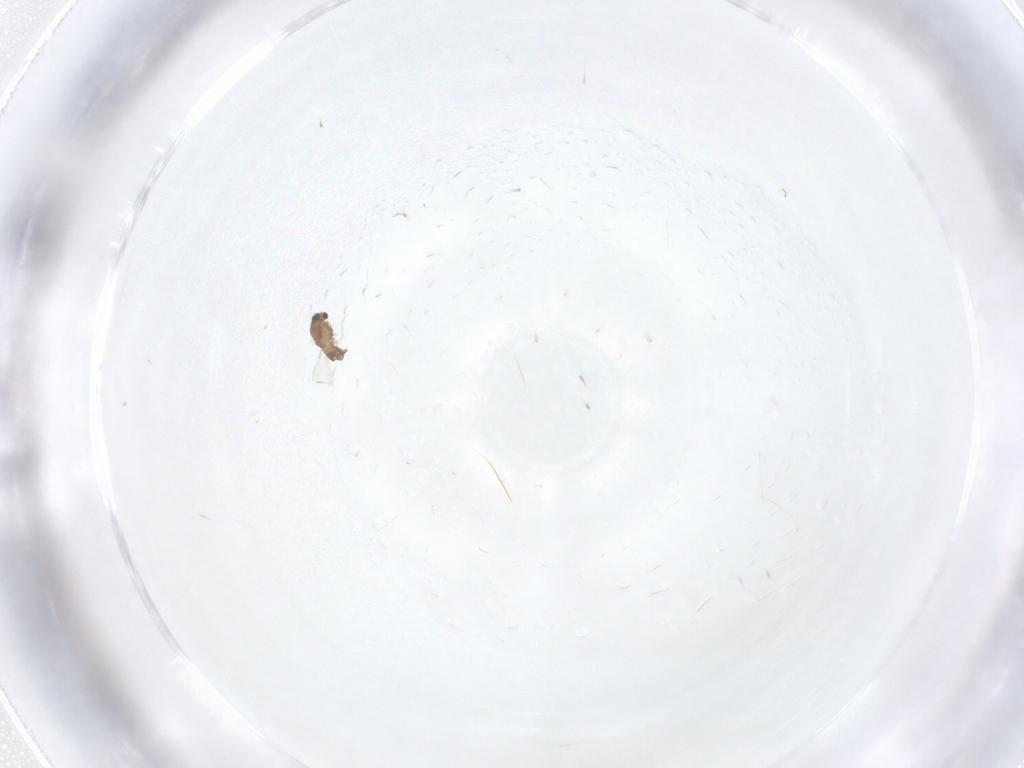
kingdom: Animalia
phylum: Arthropoda
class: Insecta
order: Diptera
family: Chironomidae
